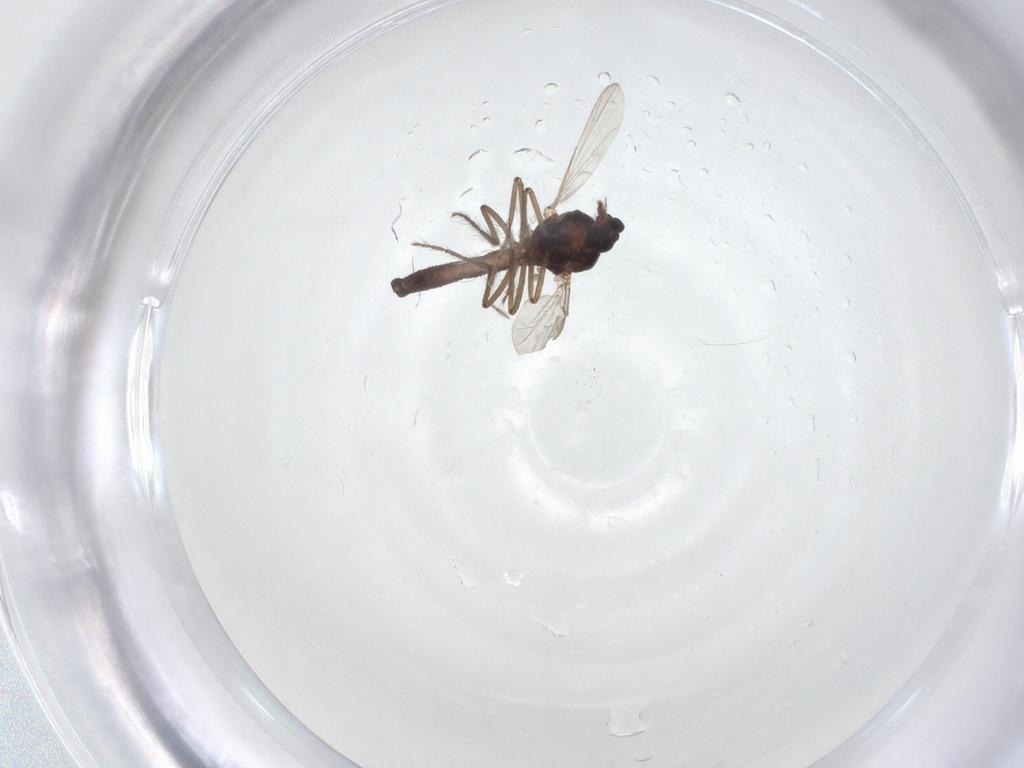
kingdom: Animalia
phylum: Arthropoda
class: Insecta
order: Diptera
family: Ceratopogonidae
